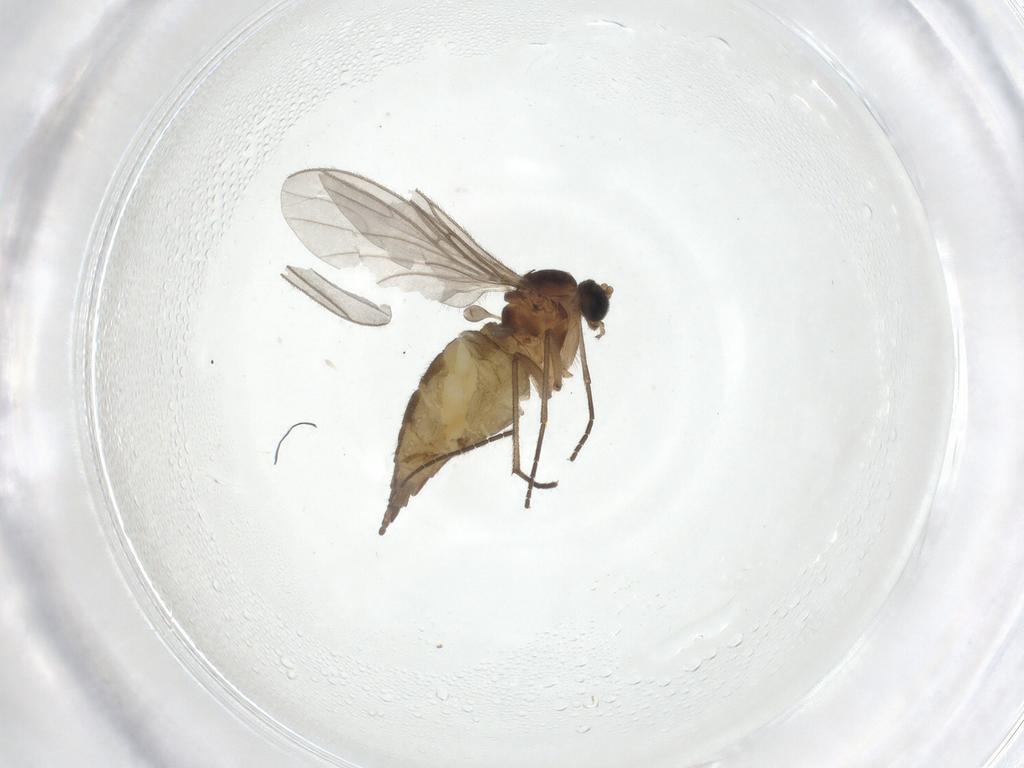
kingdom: Animalia
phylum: Arthropoda
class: Insecta
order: Diptera
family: Sciaridae
